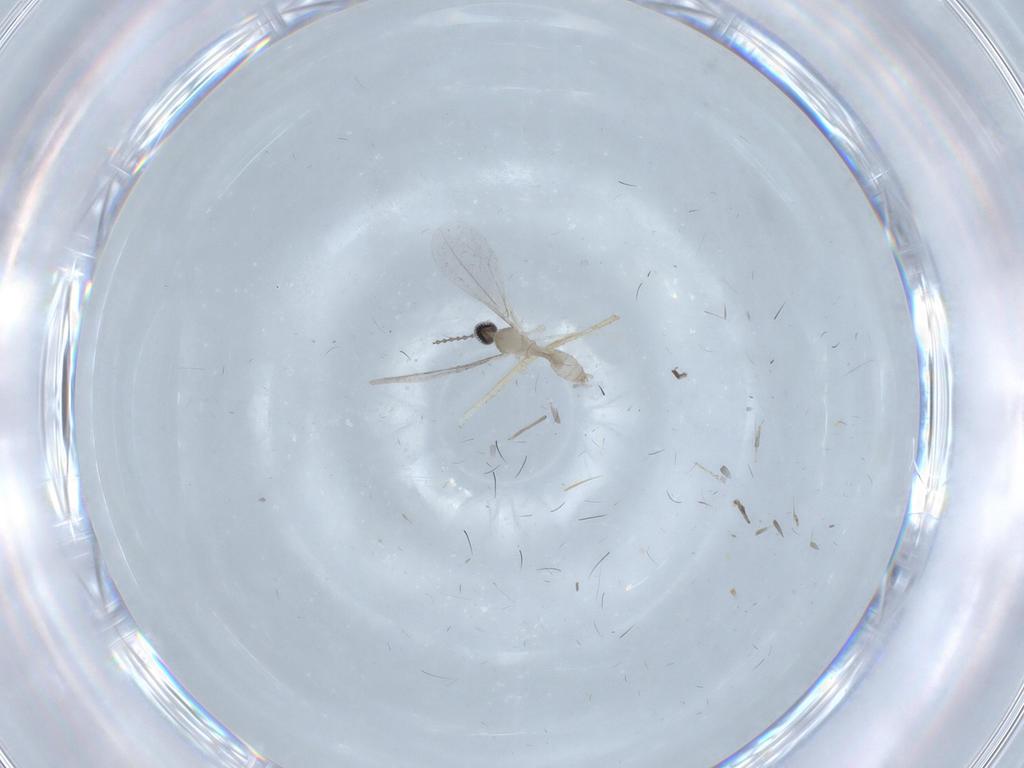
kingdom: Animalia
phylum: Arthropoda
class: Insecta
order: Diptera
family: Chironomidae
